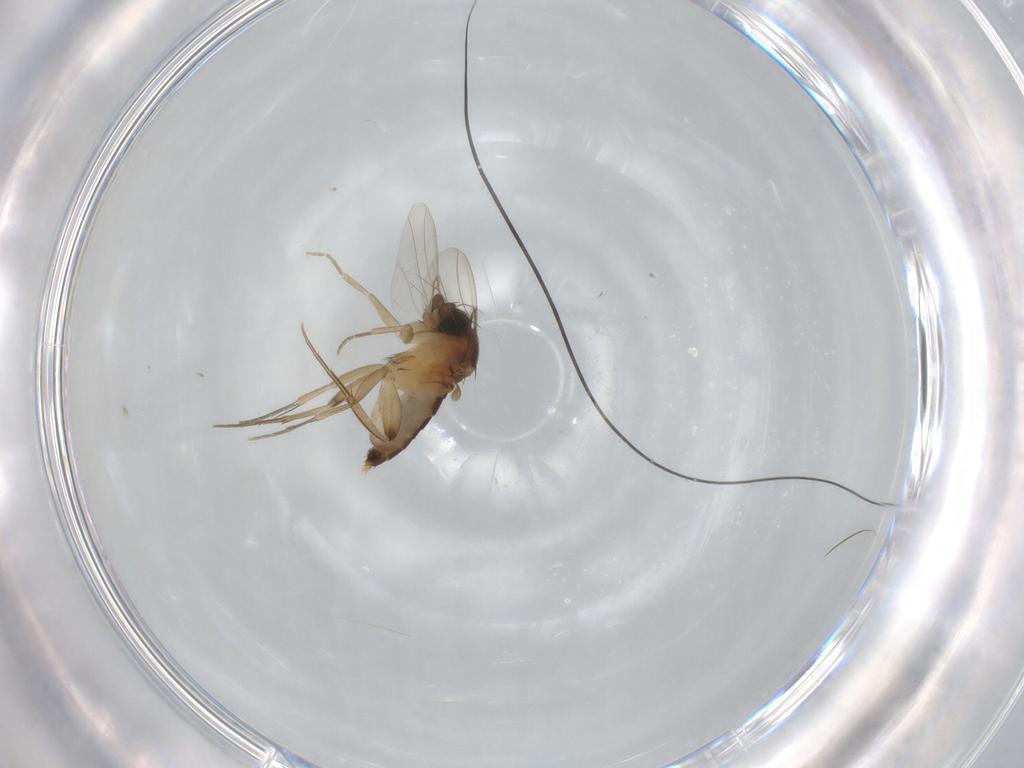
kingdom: Animalia
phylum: Arthropoda
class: Insecta
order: Diptera
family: Phoridae
